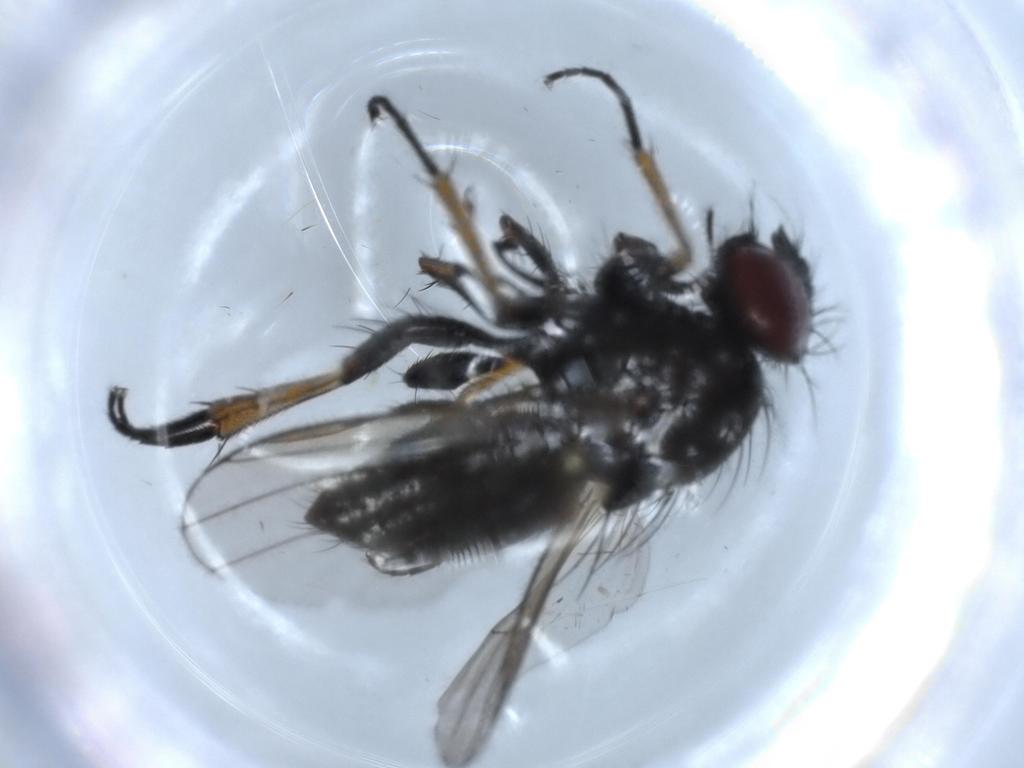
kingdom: Animalia
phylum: Arthropoda
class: Insecta
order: Diptera
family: Muscidae
